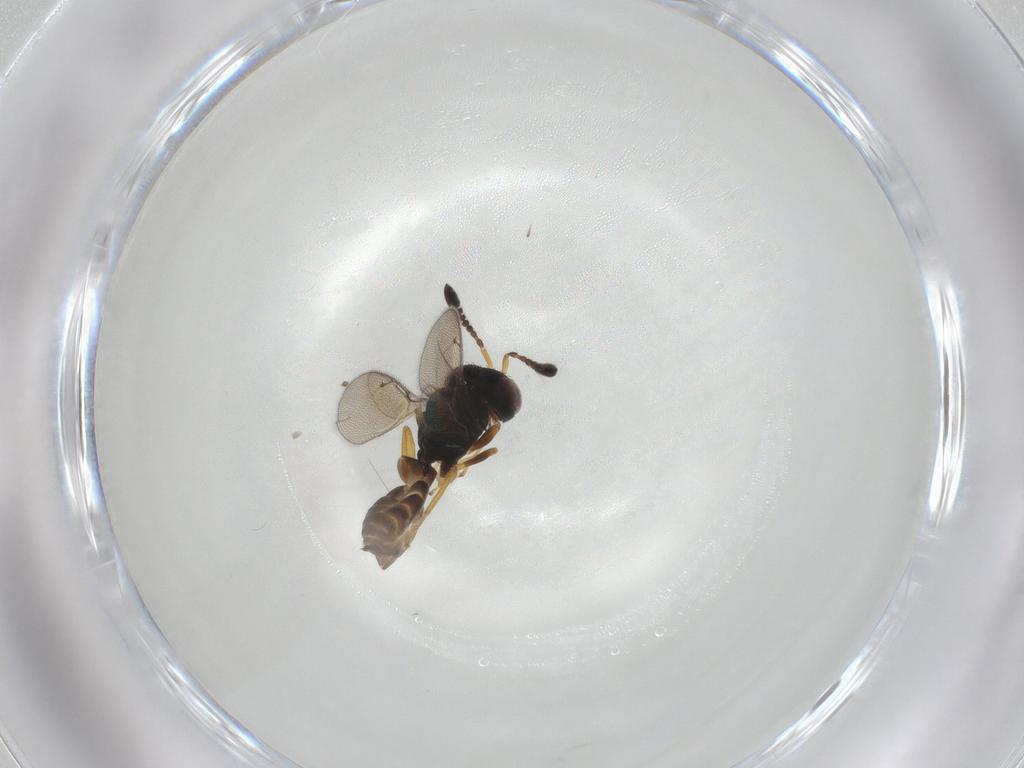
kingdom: Animalia
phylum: Arthropoda
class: Insecta
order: Hymenoptera
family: Pteromalidae
